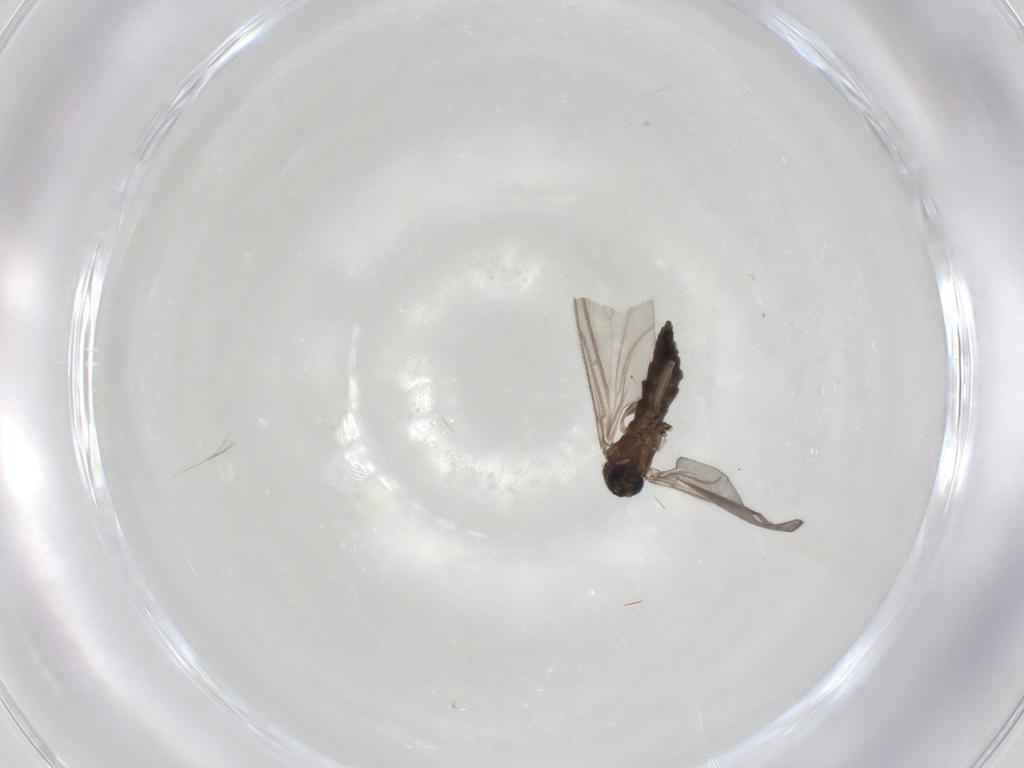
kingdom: Animalia
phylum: Arthropoda
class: Insecta
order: Diptera
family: Sciaridae
